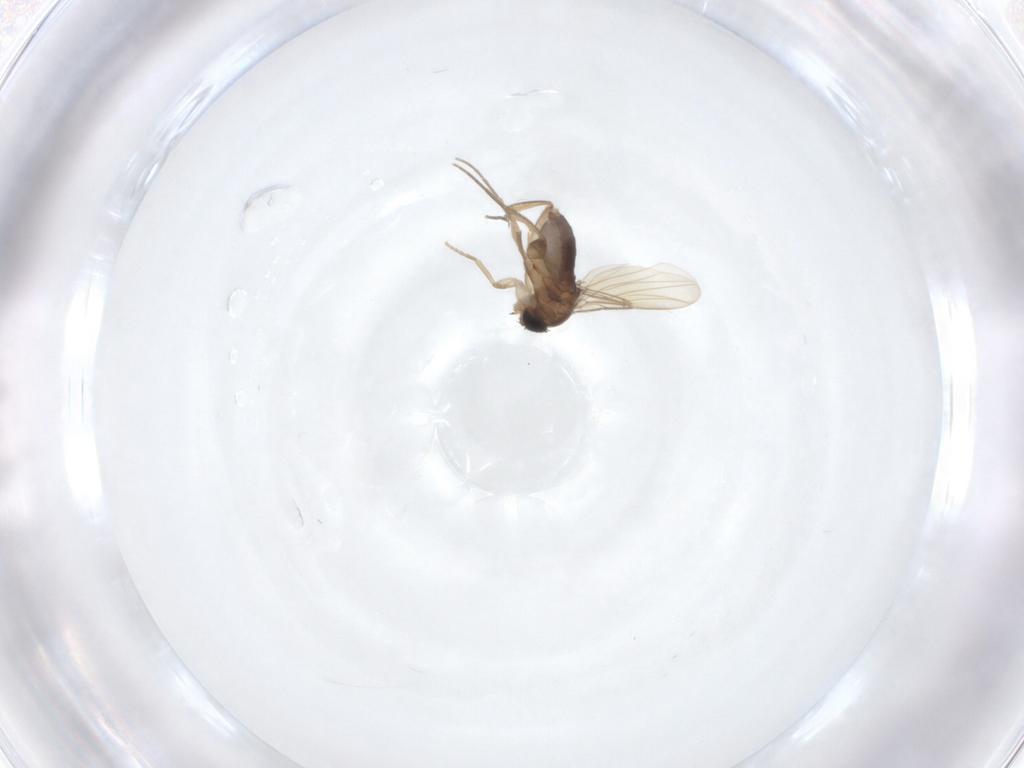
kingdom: Animalia
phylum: Arthropoda
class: Insecta
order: Diptera
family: Phoridae
